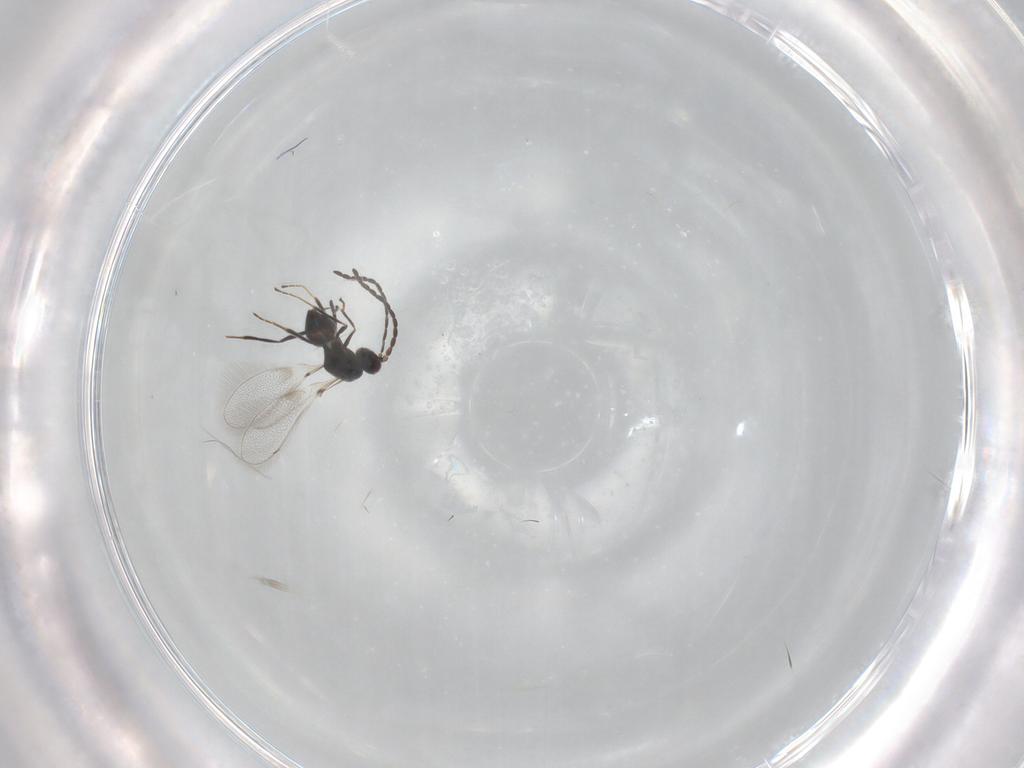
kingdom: Animalia
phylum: Arthropoda
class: Insecta
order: Hymenoptera
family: Mymaridae
